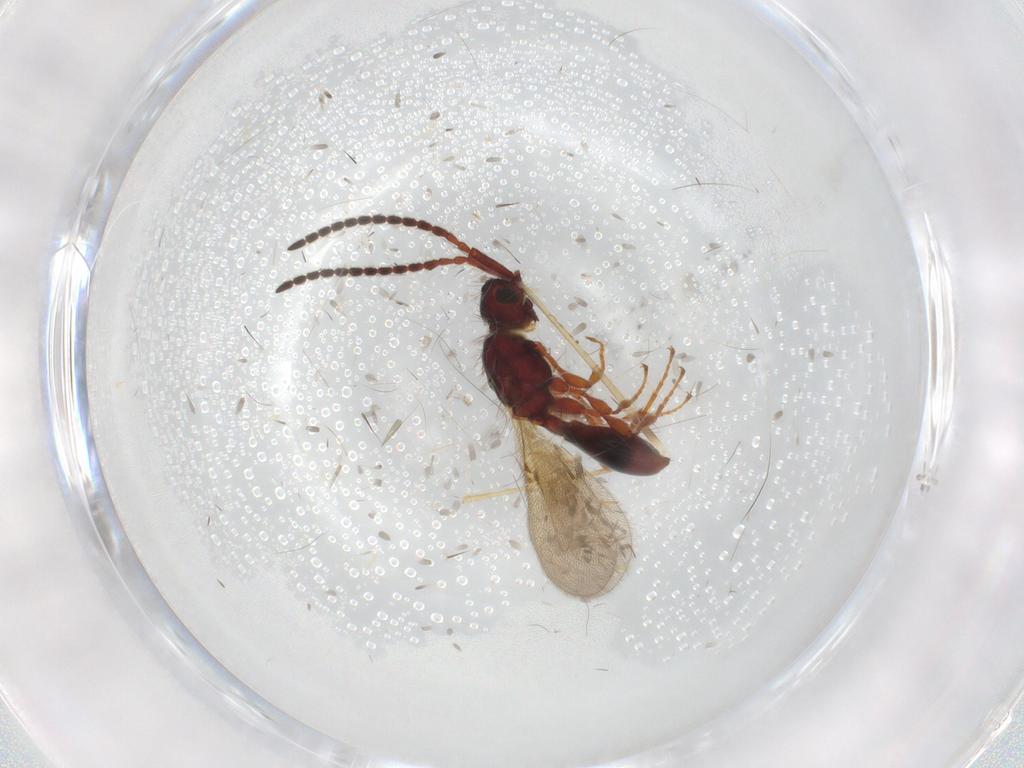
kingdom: Animalia
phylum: Arthropoda
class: Insecta
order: Hymenoptera
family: Diapriidae
